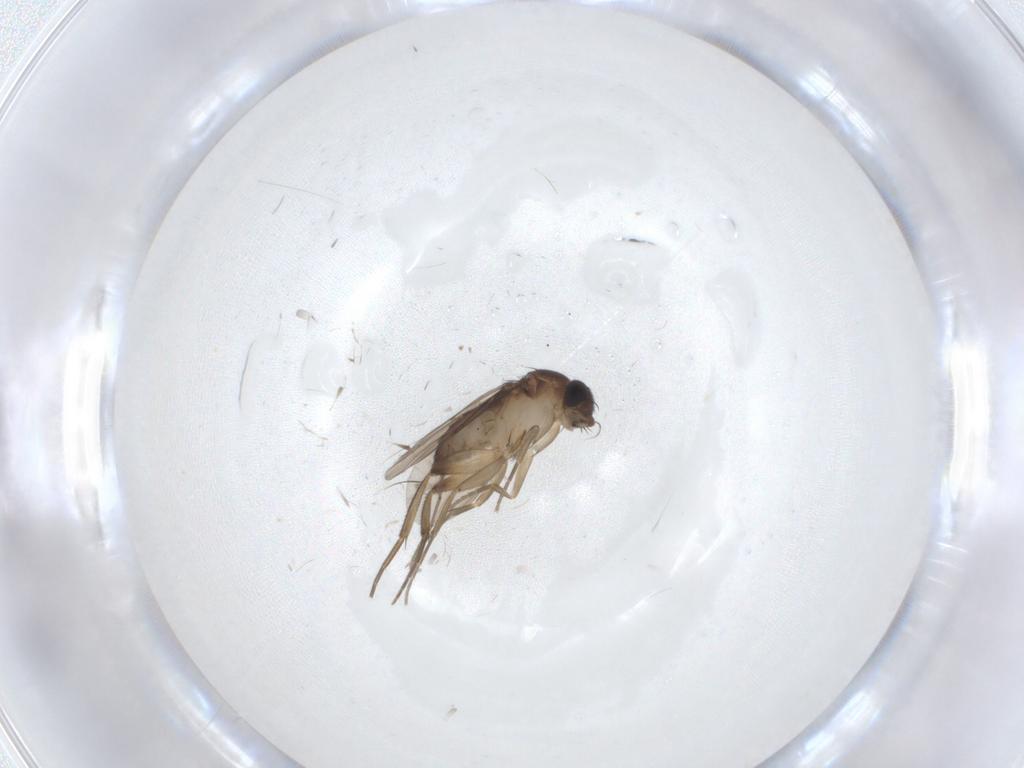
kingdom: Animalia
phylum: Arthropoda
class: Insecta
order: Diptera
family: Phoridae
